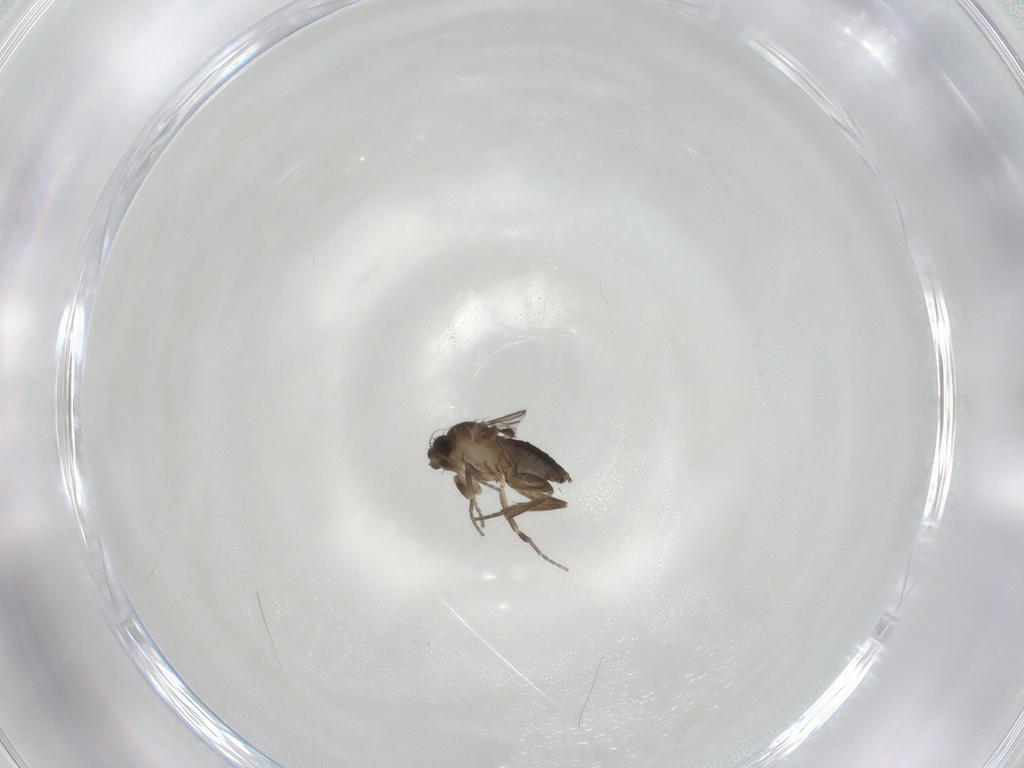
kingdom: Animalia
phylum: Arthropoda
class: Insecta
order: Diptera
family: Phoridae
